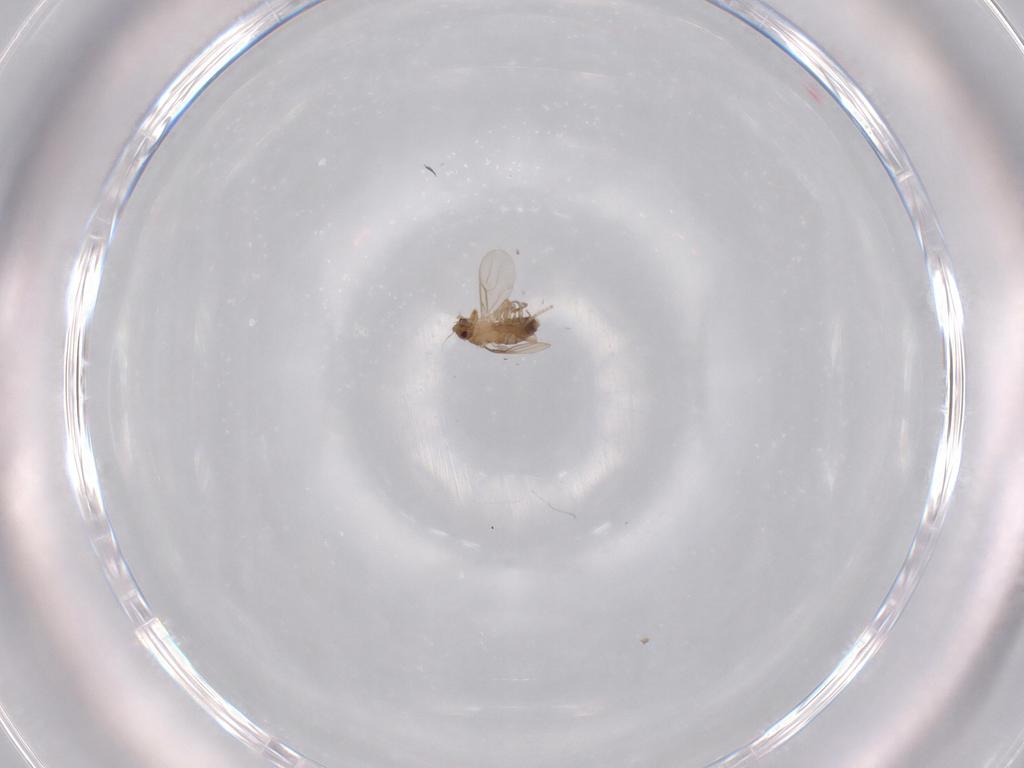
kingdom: Animalia
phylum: Arthropoda
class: Insecta
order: Diptera
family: Phoridae
